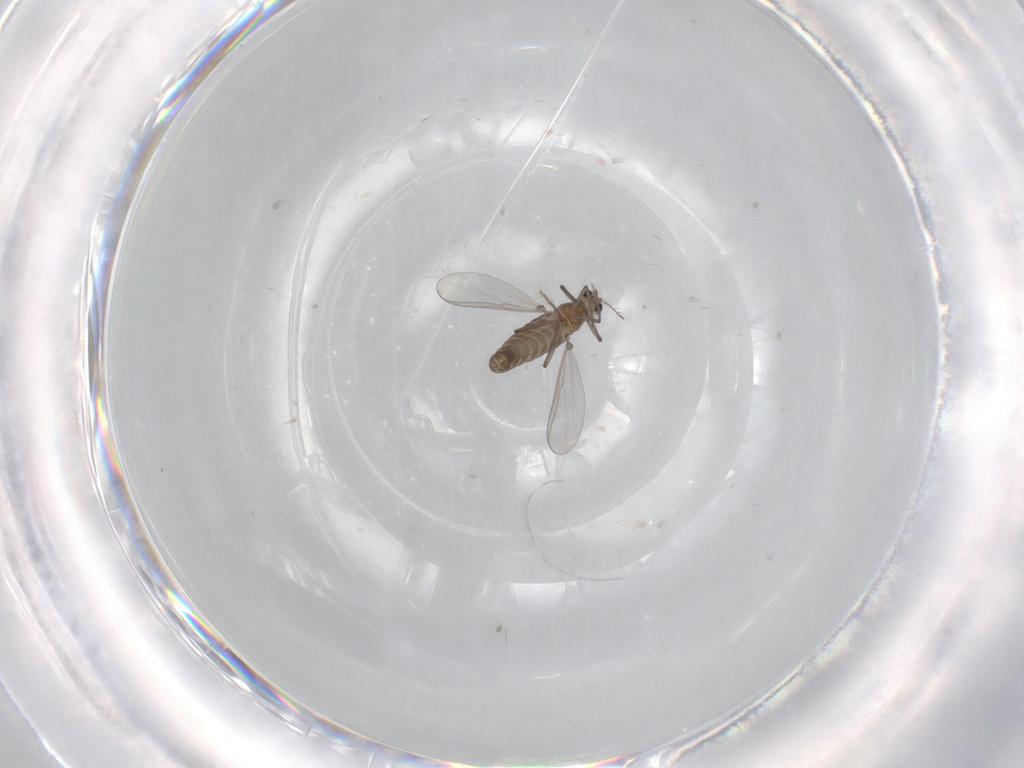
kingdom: Animalia
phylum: Arthropoda
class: Insecta
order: Diptera
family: Chironomidae
